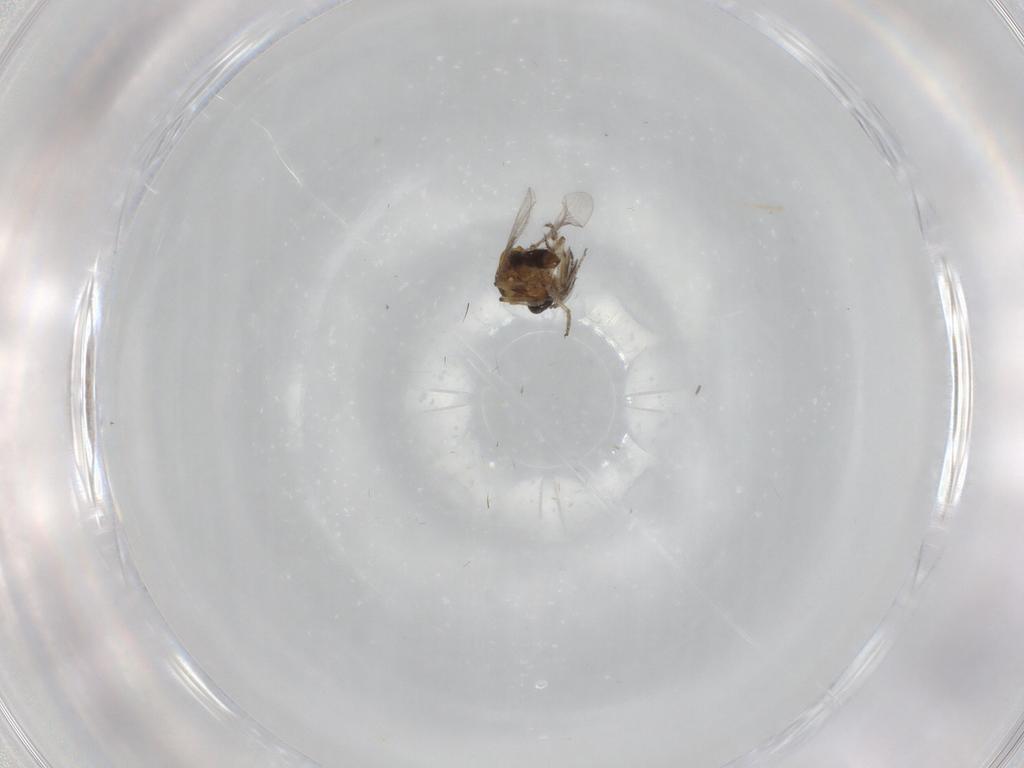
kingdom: Animalia
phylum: Arthropoda
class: Insecta
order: Diptera
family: Ceratopogonidae
